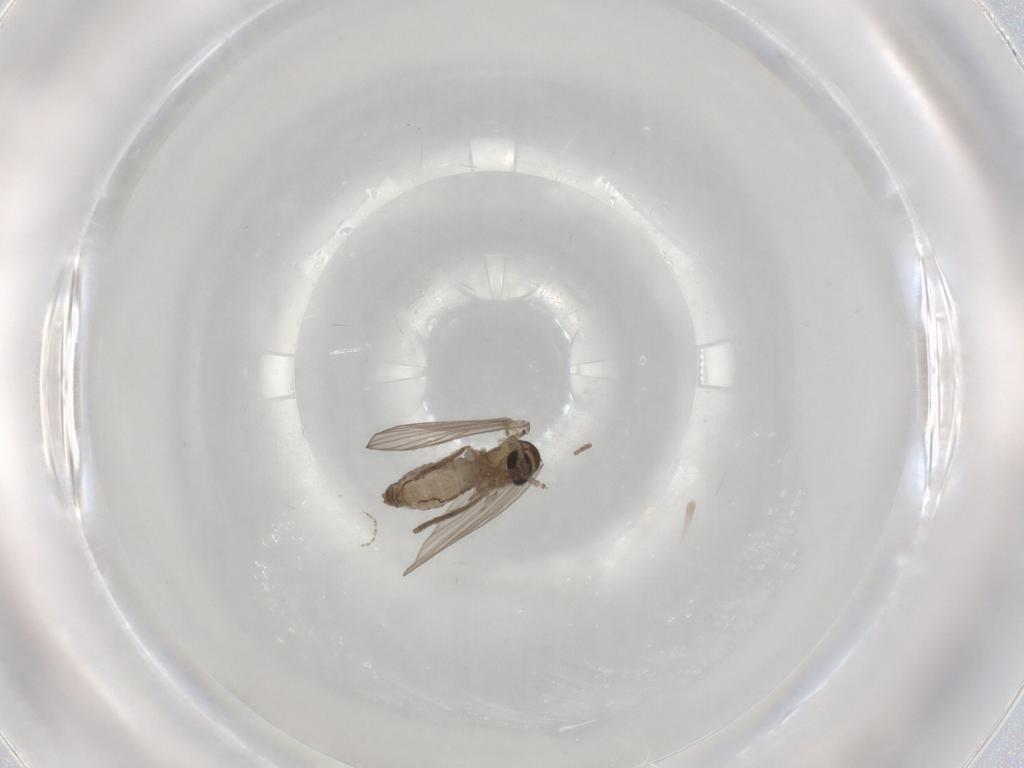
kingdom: Animalia
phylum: Arthropoda
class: Insecta
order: Diptera
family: Psychodidae
